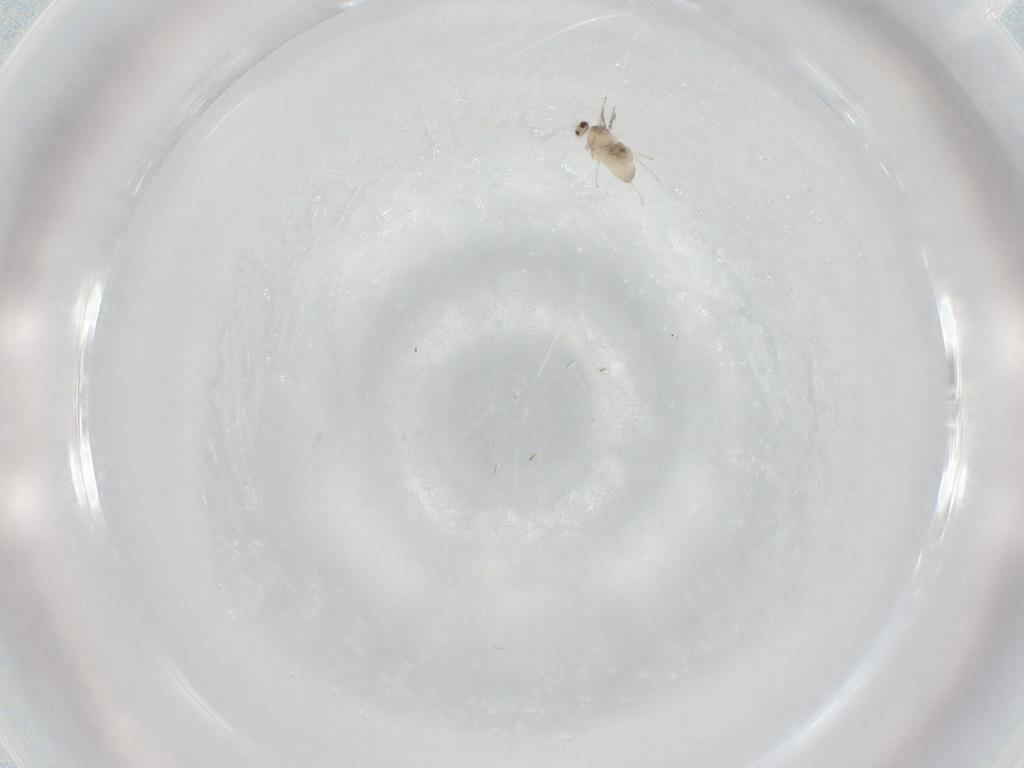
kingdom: Animalia
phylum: Arthropoda
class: Insecta
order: Diptera
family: Cecidomyiidae
